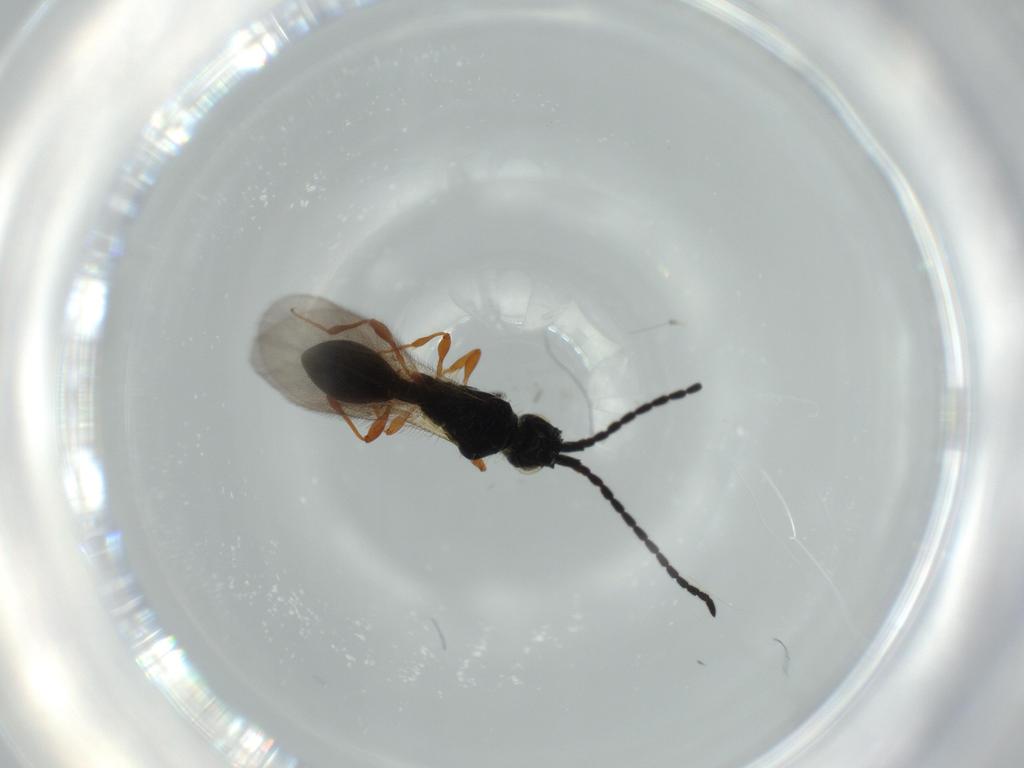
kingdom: Animalia
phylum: Arthropoda
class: Insecta
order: Hymenoptera
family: Diapriidae
